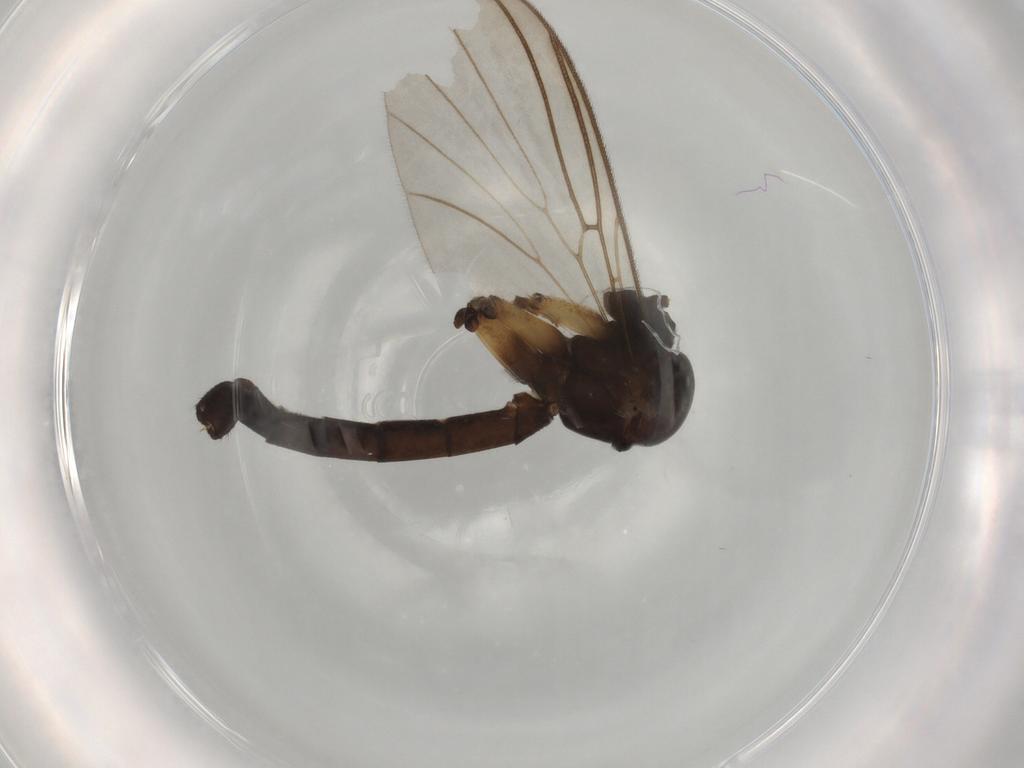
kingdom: Animalia
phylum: Arthropoda
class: Insecta
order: Diptera
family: Mycetophilidae
